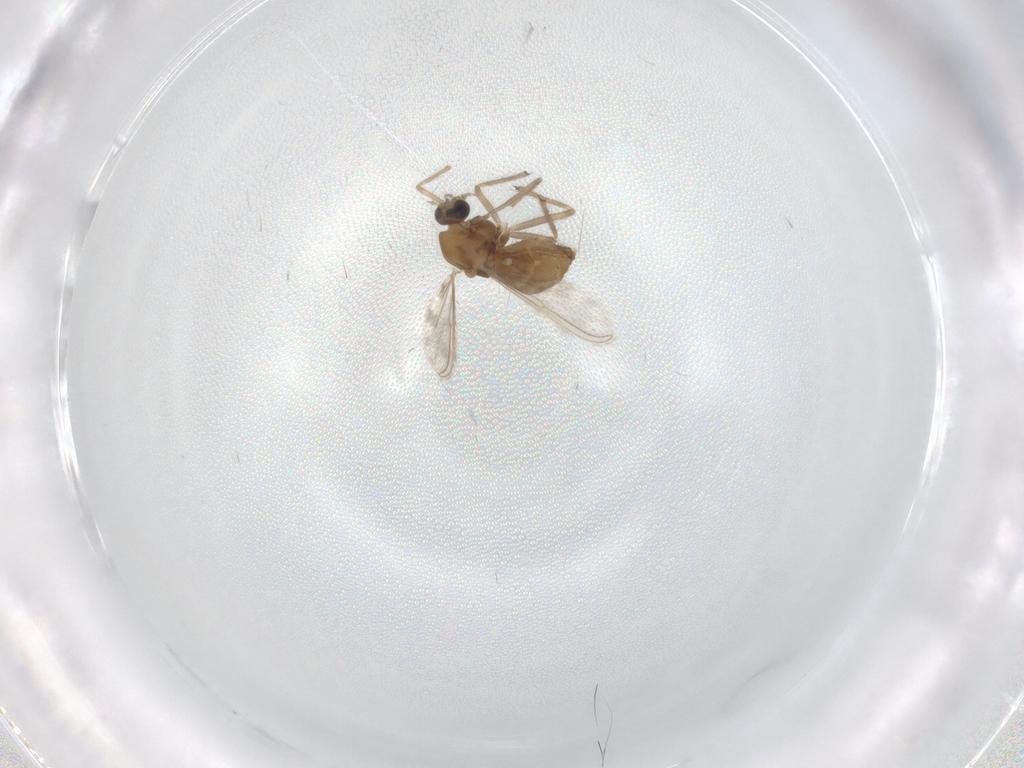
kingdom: Animalia
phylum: Arthropoda
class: Insecta
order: Diptera
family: Chironomidae
